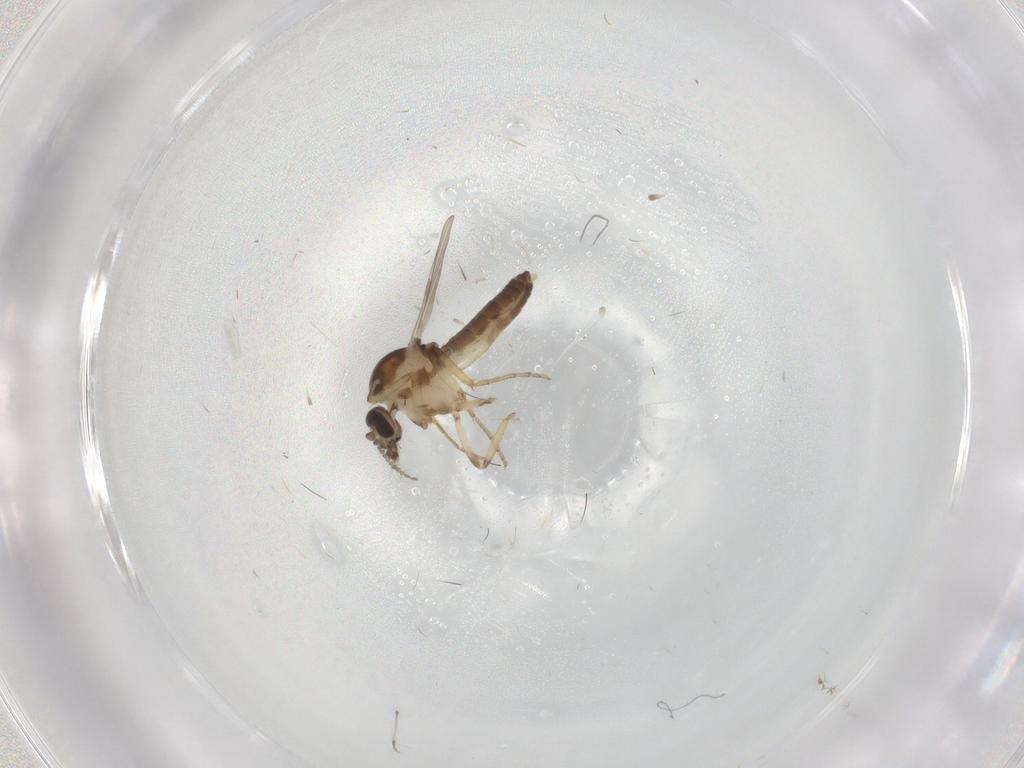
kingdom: Animalia
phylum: Arthropoda
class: Insecta
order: Diptera
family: Ceratopogonidae
